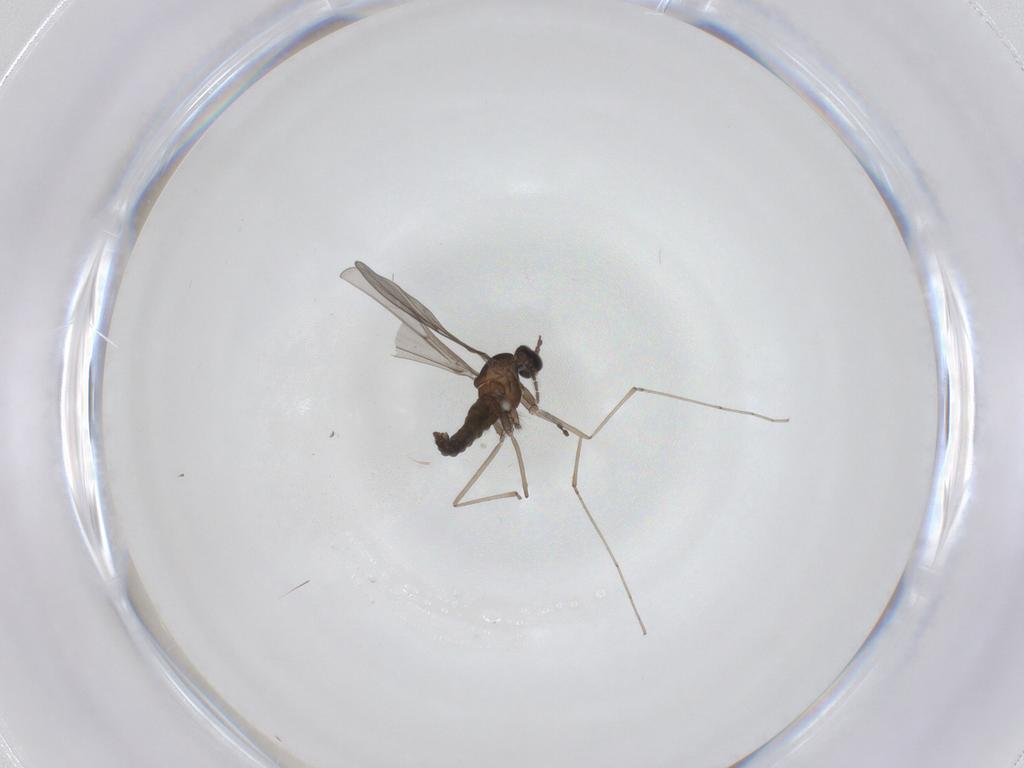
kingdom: Animalia
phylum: Arthropoda
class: Insecta
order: Diptera
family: Sciaridae
